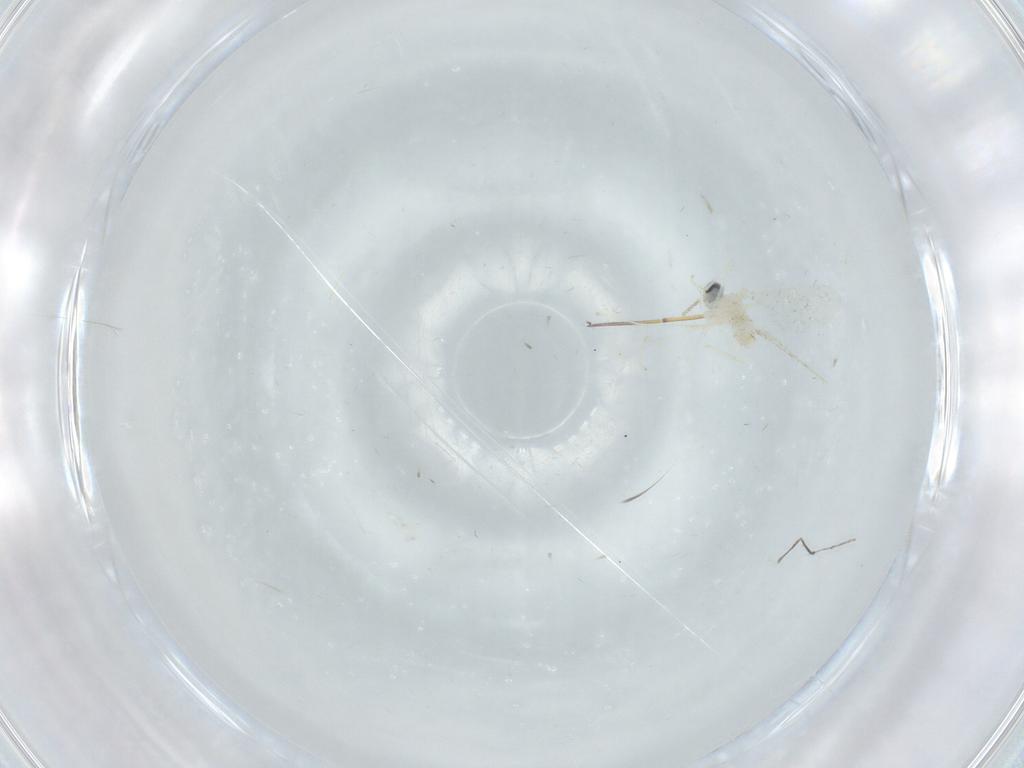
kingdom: Animalia
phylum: Arthropoda
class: Insecta
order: Diptera
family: Cecidomyiidae
